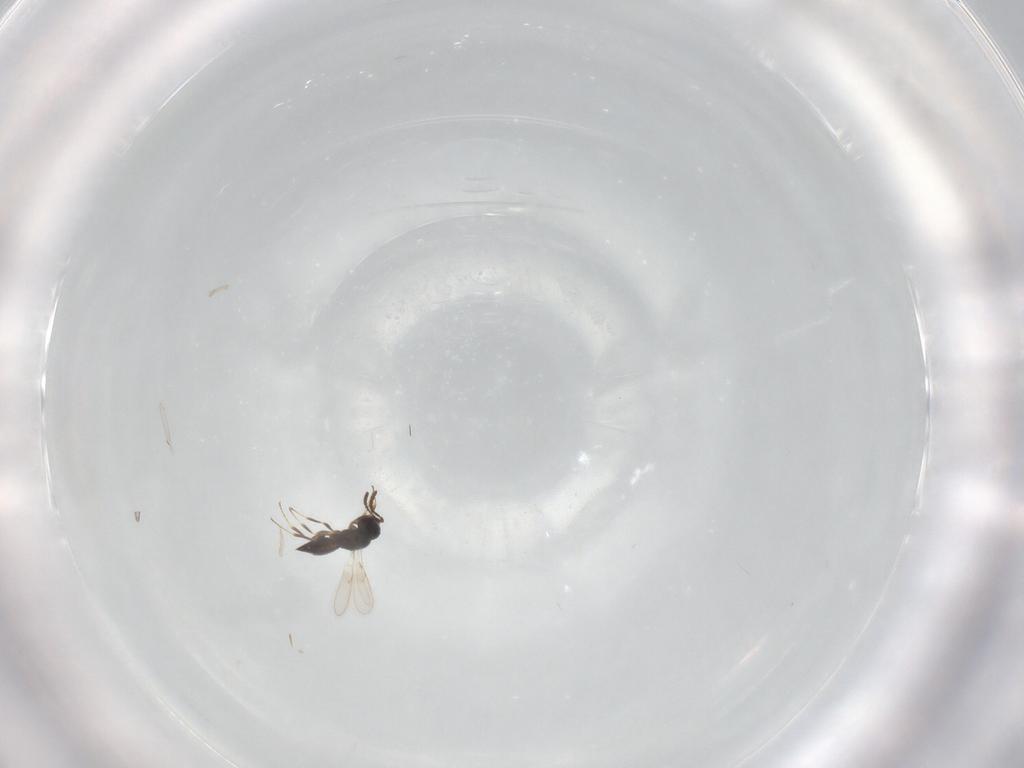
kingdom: Animalia
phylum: Arthropoda
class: Insecta
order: Hymenoptera
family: Scelionidae
